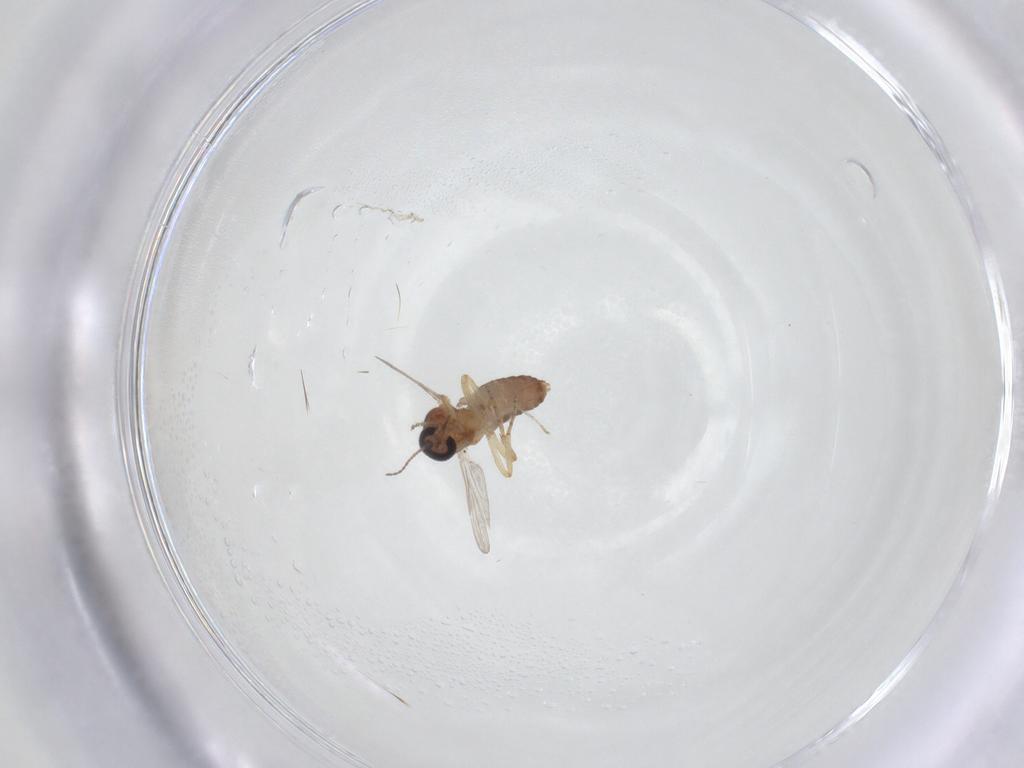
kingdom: Animalia
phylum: Arthropoda
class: Insecta
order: Diptera
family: Ceratopogonidae
